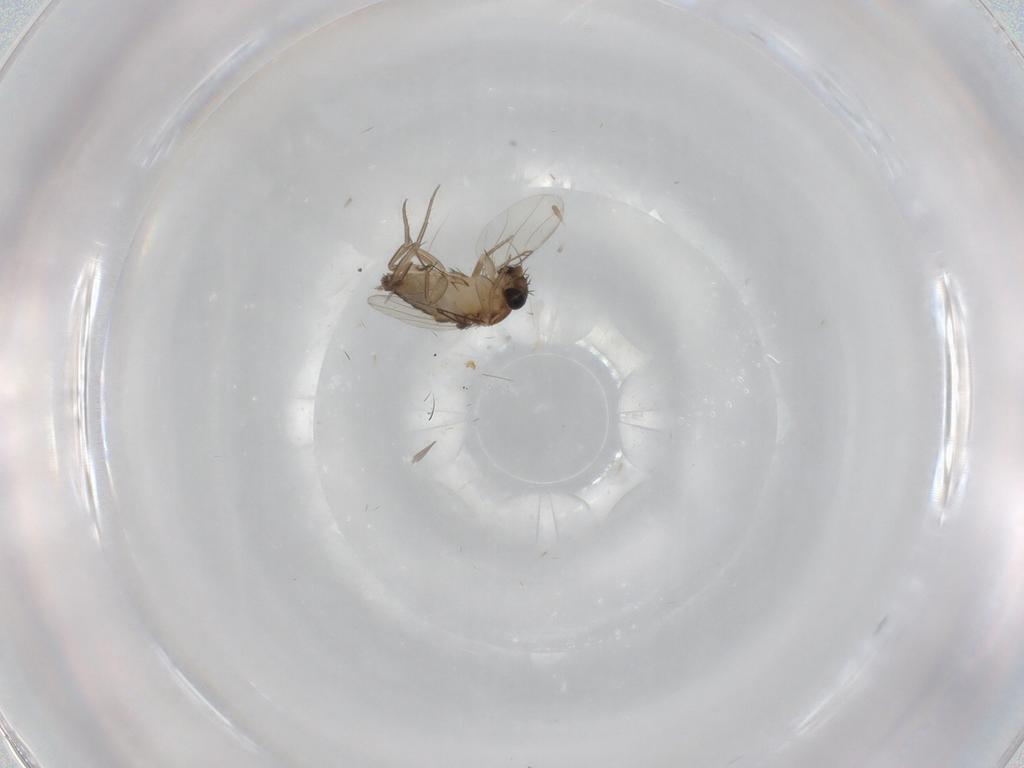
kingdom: Animalia
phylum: Arthropoda
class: Insecta
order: Diptera
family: Phoridae
